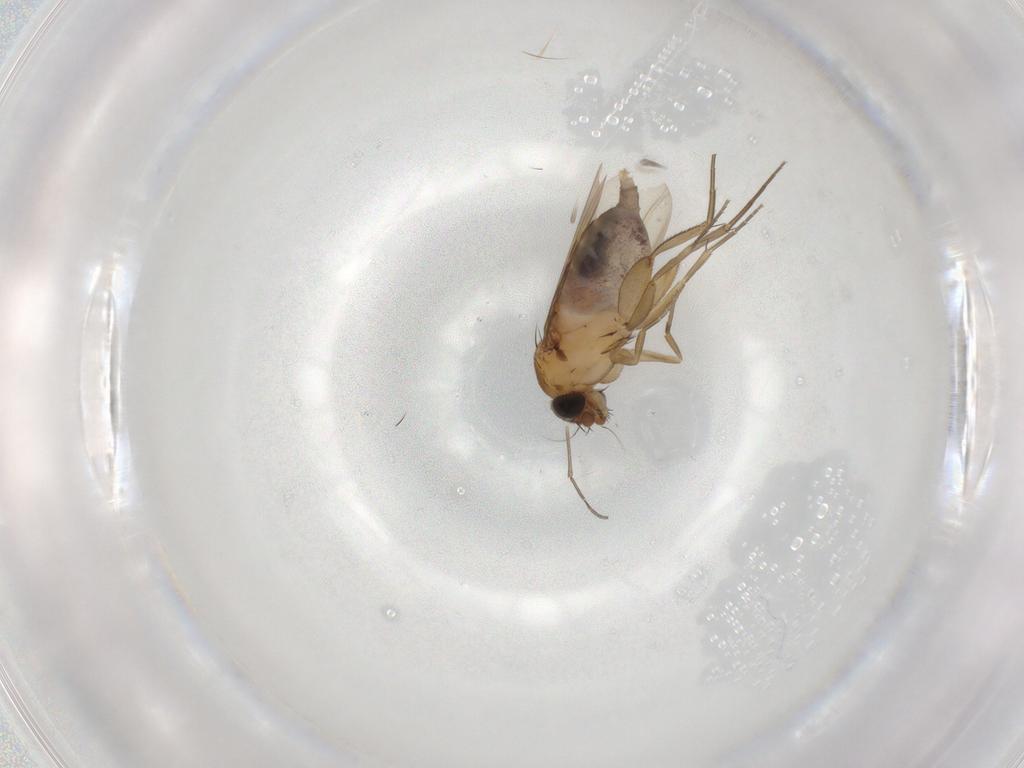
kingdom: Animalia
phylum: Arthropoda
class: Insecta
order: Diptera
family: Phoridae
